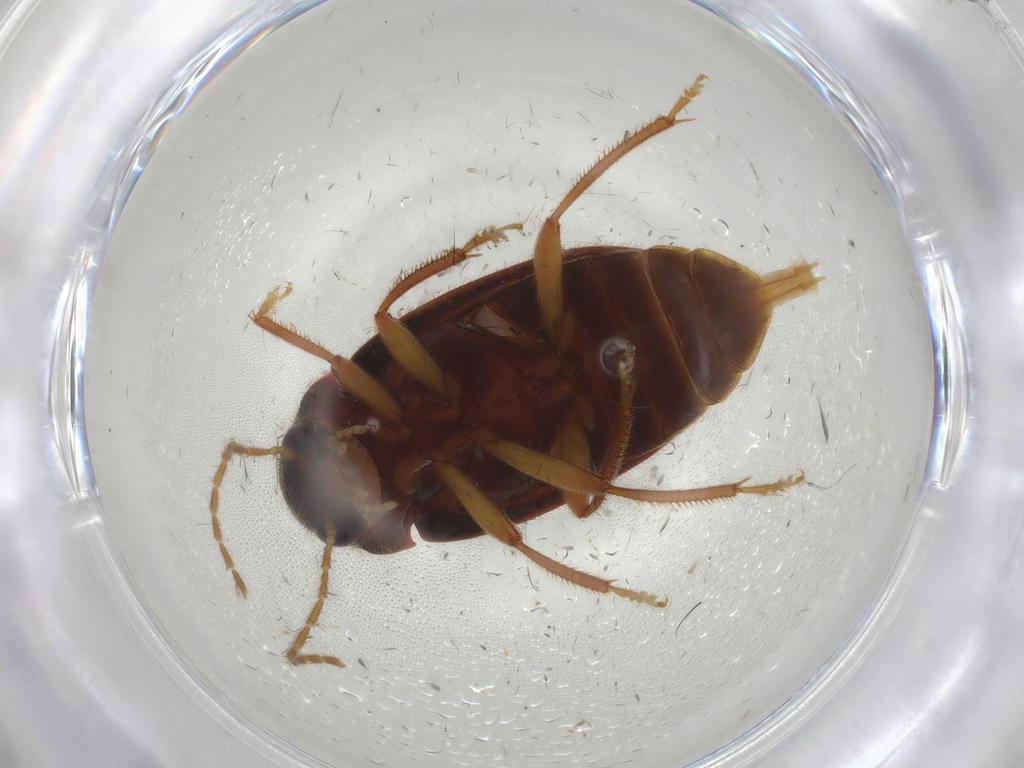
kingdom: Animalia
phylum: Arthropoda
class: Insecta
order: Coleoptera
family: Ptilodactylidae
